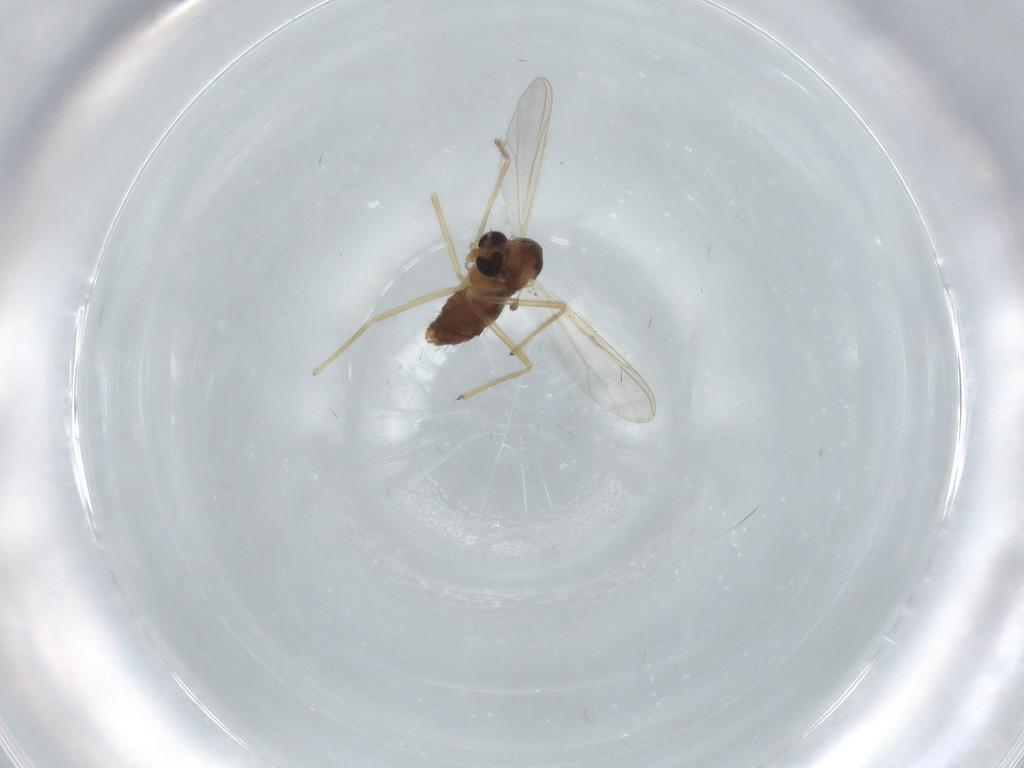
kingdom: Animalia
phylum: Arthropoda
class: Insecta
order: Diptera
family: Chironomidae
